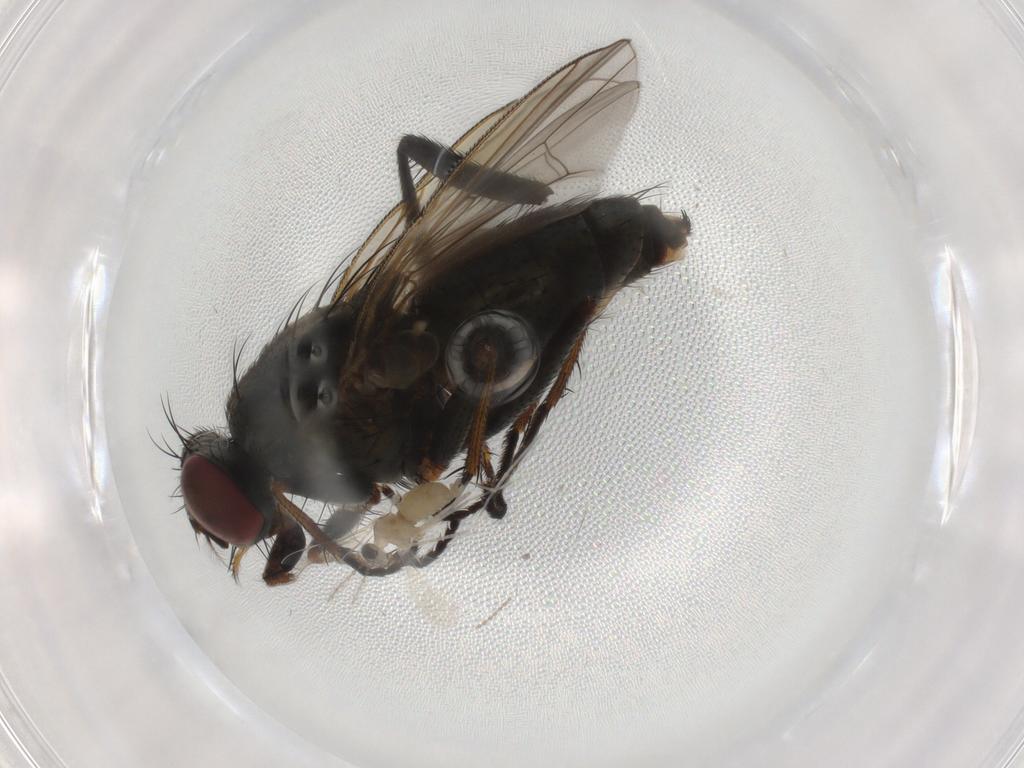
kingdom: Animalia
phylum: Arthropoda
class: Insecta
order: Diptera
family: Muscidae
